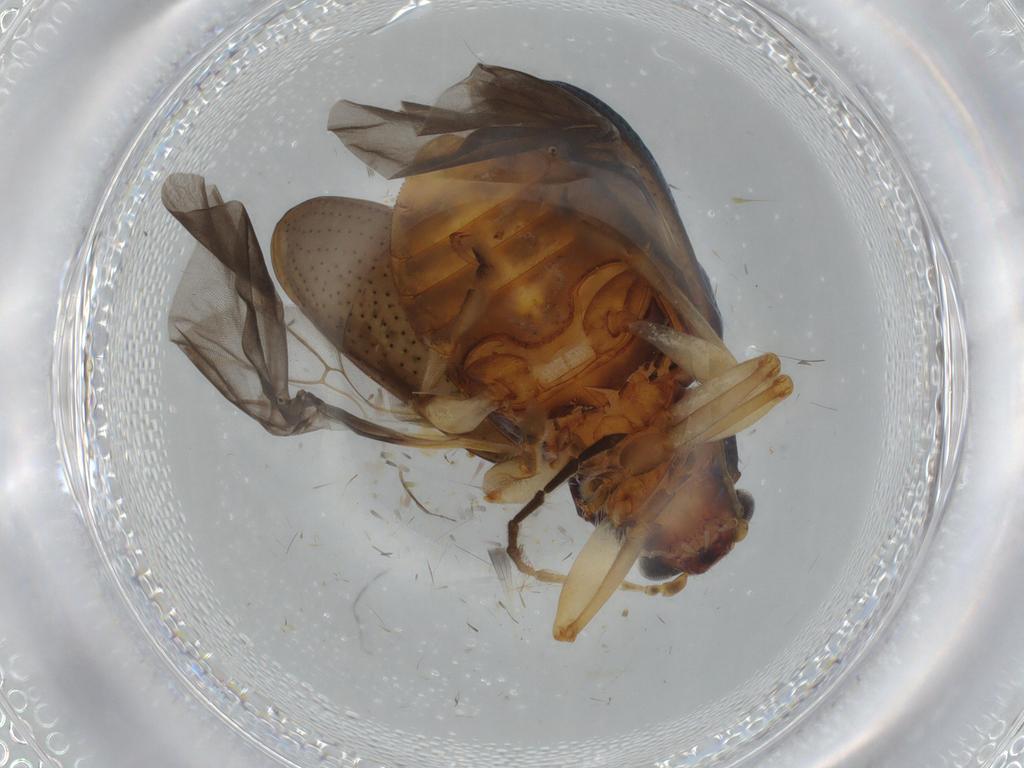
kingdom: Animalia
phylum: Arthropoda
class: Insecta
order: Coleoptera
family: Chrysomelidae
